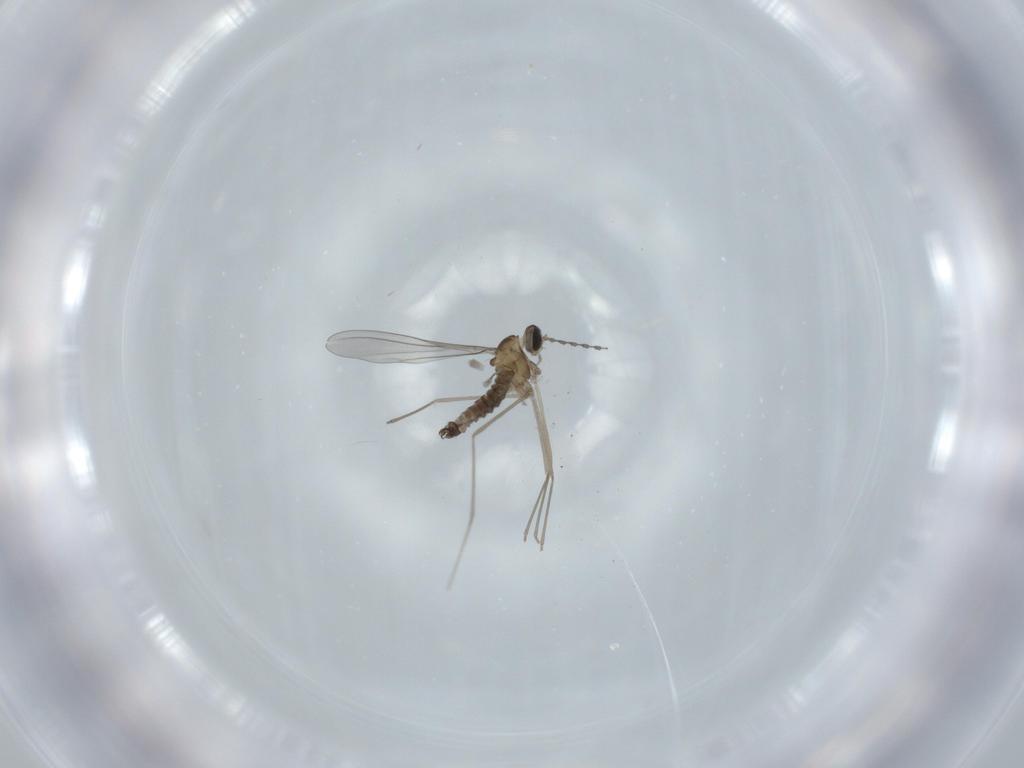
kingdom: Animalia
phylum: Arthropoda
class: Insecta
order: Diptera
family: Cecidomyiidae
